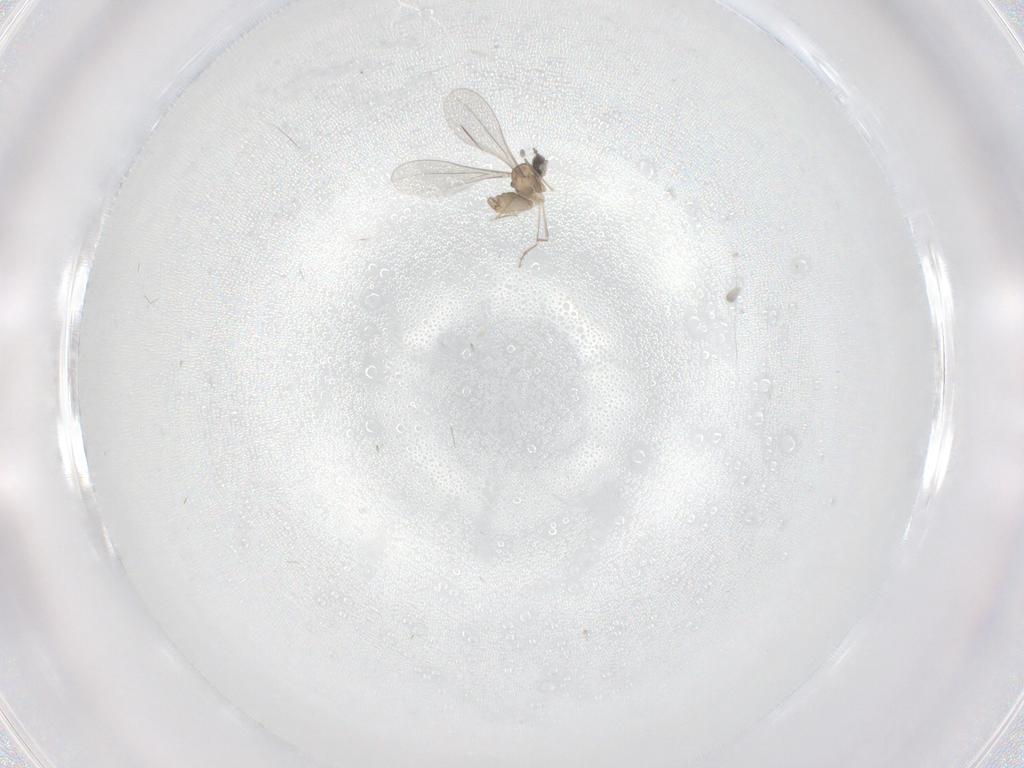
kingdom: Animalia
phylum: Arthropoda
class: Insecta
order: Diptera
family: Cecidomyiidae
